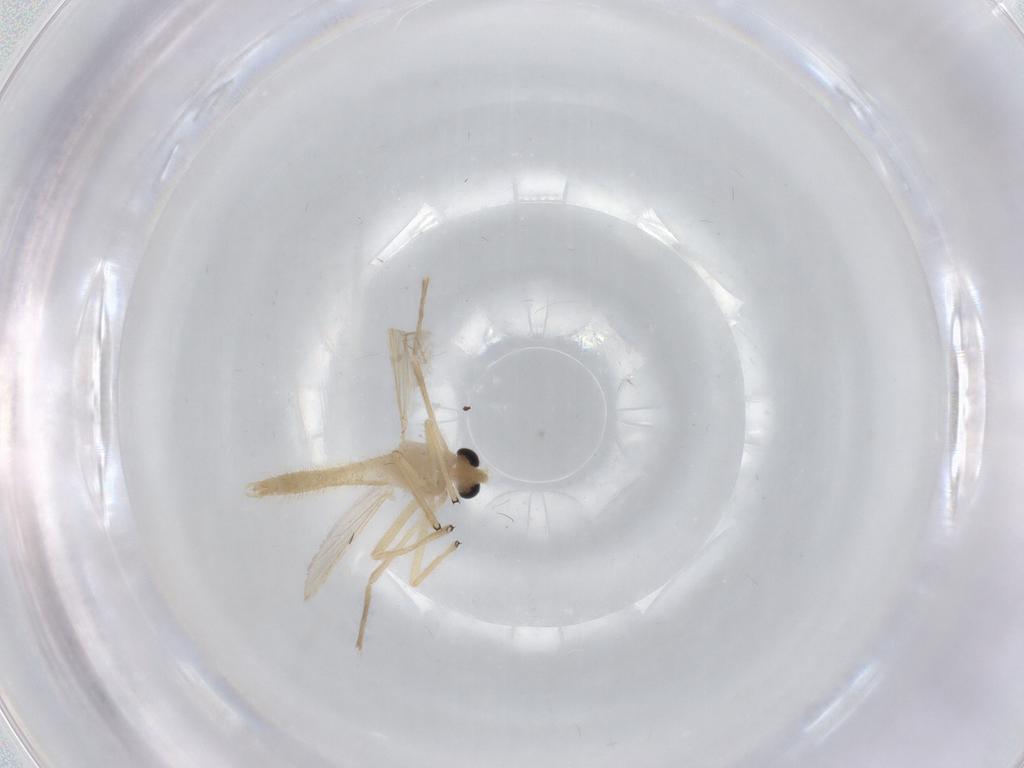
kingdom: Animalia
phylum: Arthropoda
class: Insecta
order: Diptera
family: Chironomidae
